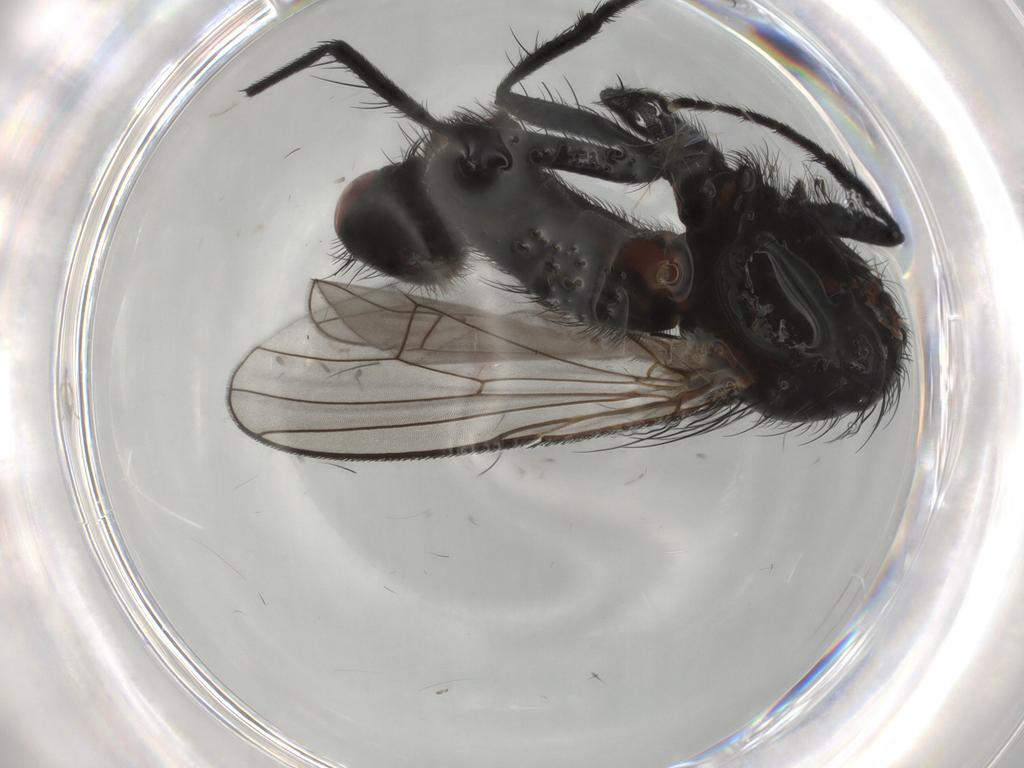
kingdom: Animalia
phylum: Arthropoda
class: Insecta
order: Diptera
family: Anthomyiidae
